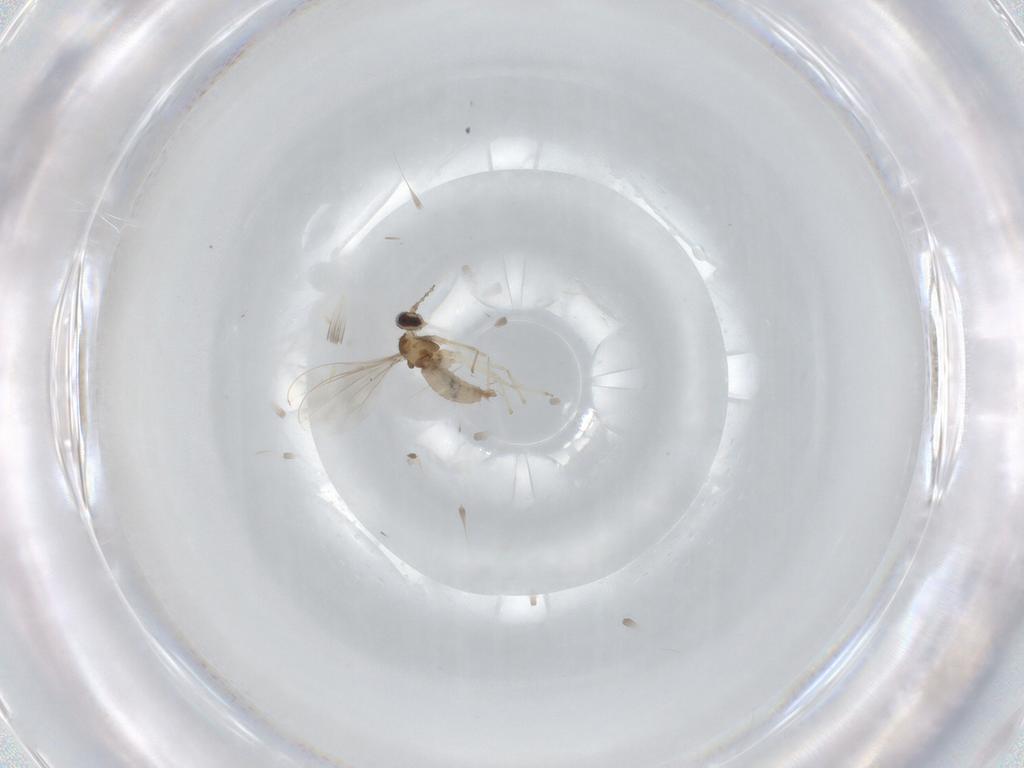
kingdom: Animalia
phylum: Arthropoda
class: Insecta
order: Diptera
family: Cecidomyiidae
